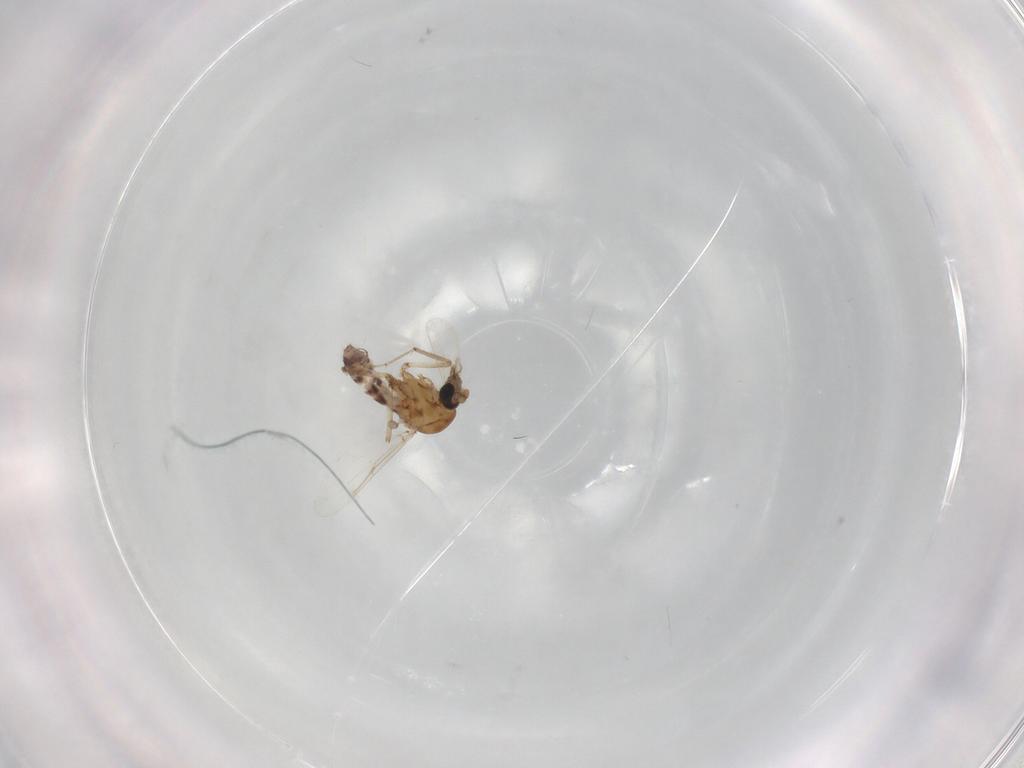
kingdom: Animalia
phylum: Arthropoda
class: Insecta
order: Diptera
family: Ceratopogonidae
